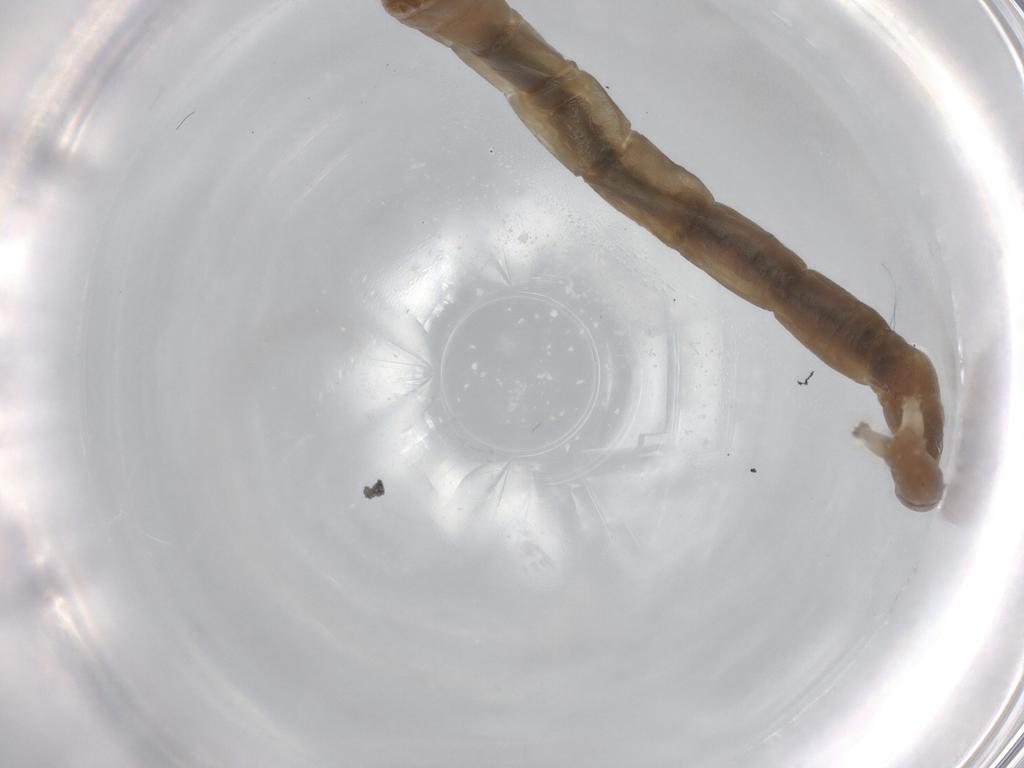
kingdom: Animalia
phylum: Arthropoda
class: Insecta
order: Diptera
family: Chironomidae
